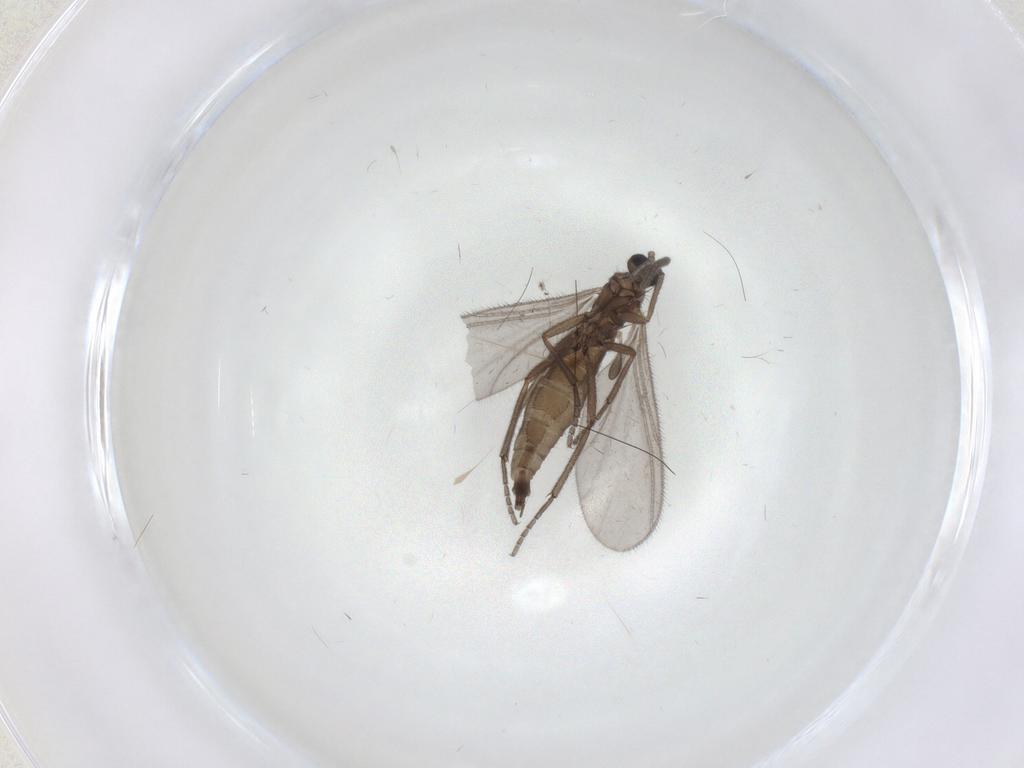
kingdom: Animalia
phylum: Arthropoda
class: Insecta
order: Diptera
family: Sciaridae
